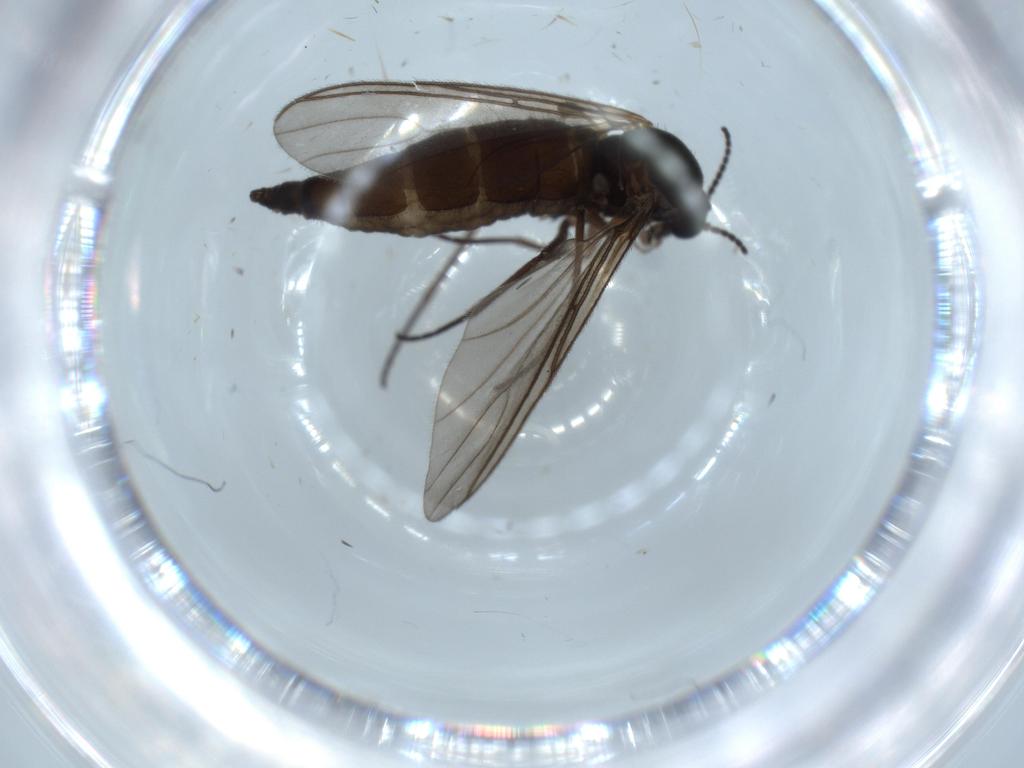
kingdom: Animalia
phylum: Arthropoda
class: Insecta
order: Diptera
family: Sciaridae
